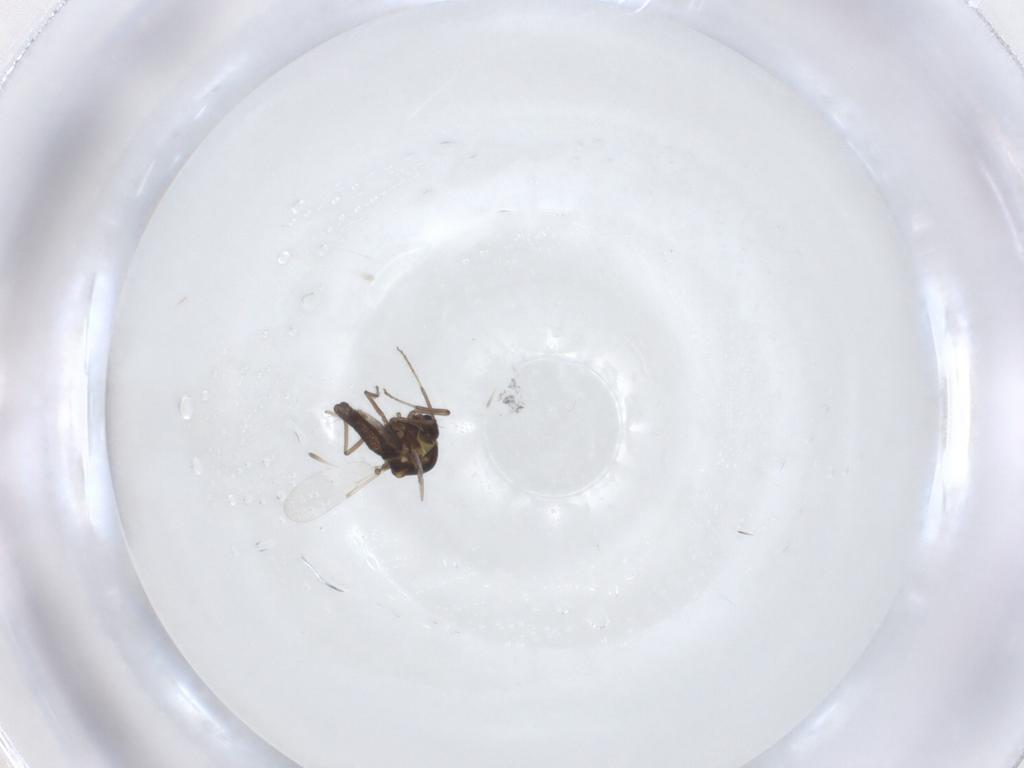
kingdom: Animalia
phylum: Arthropoda
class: Insecta
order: Diptera
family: Ceratopogonidae
